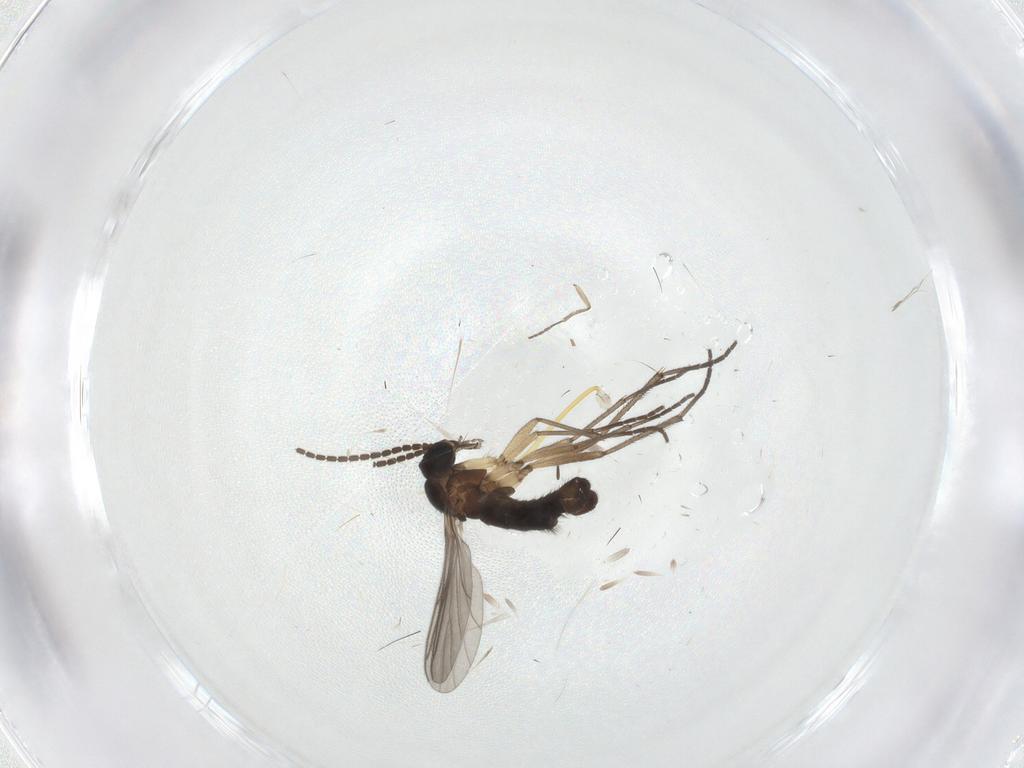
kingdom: Animalia
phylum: Arthropoda
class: Insecta
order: Diptera
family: Sciaridae
